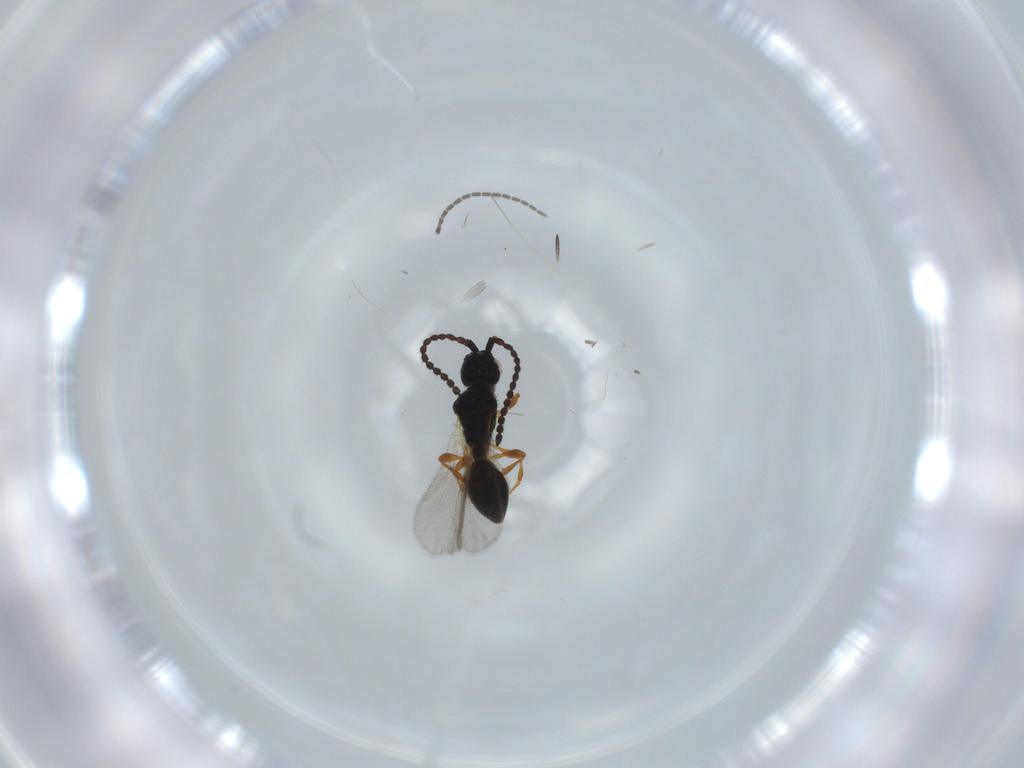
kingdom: Animalia
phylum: Arthropoda
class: Insecta
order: Hymenoptera
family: Diapriidae
